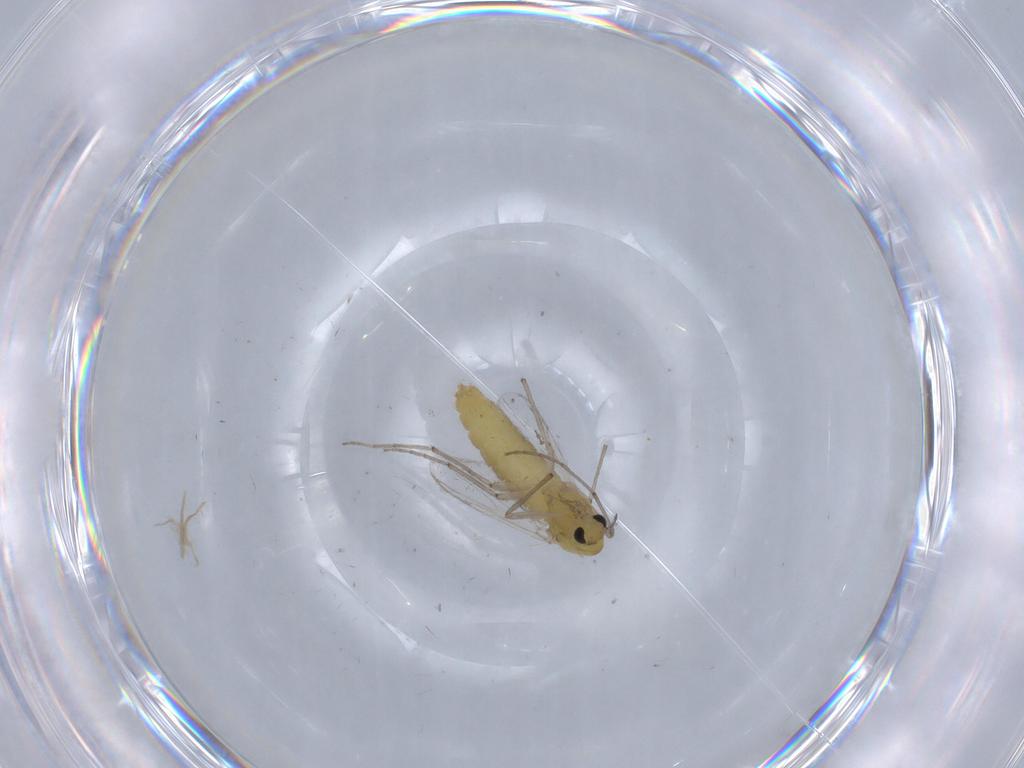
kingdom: Animalia
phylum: Arthropoda
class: Insecta
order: Diptera
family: Chironomidae
